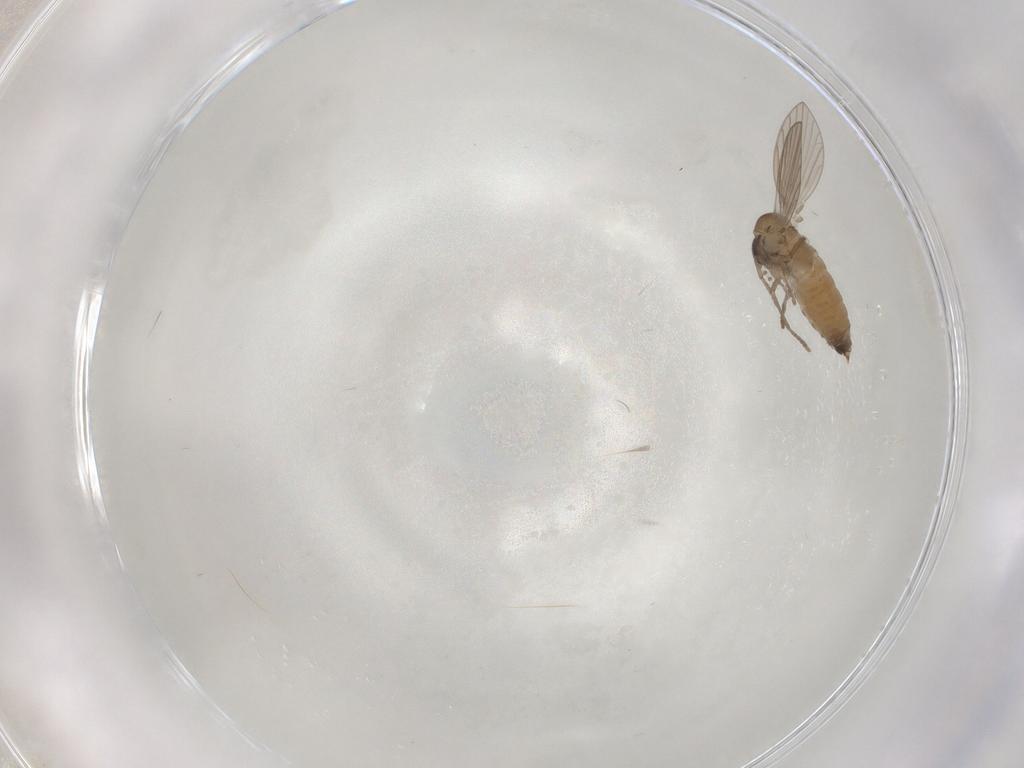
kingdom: Animalia
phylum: Arthropoda
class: Insecta
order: Diptera
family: Psychodidae
